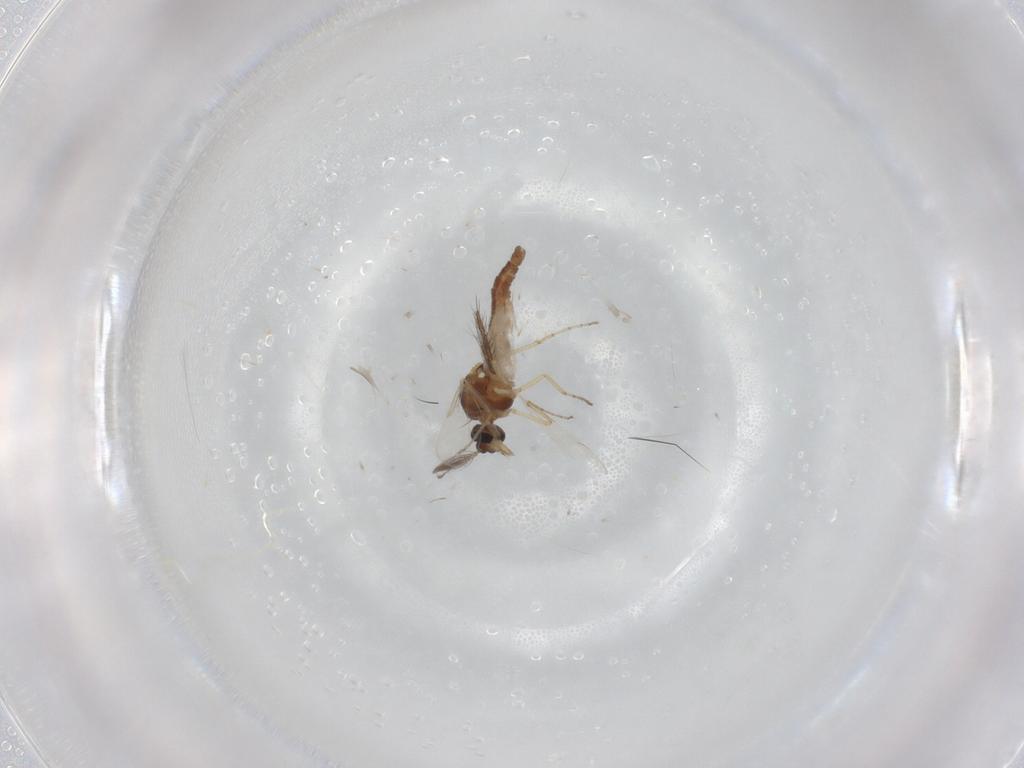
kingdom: Animalia
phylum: Arthropoda
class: Insecta
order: Diptera
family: Ceratopogonidae
